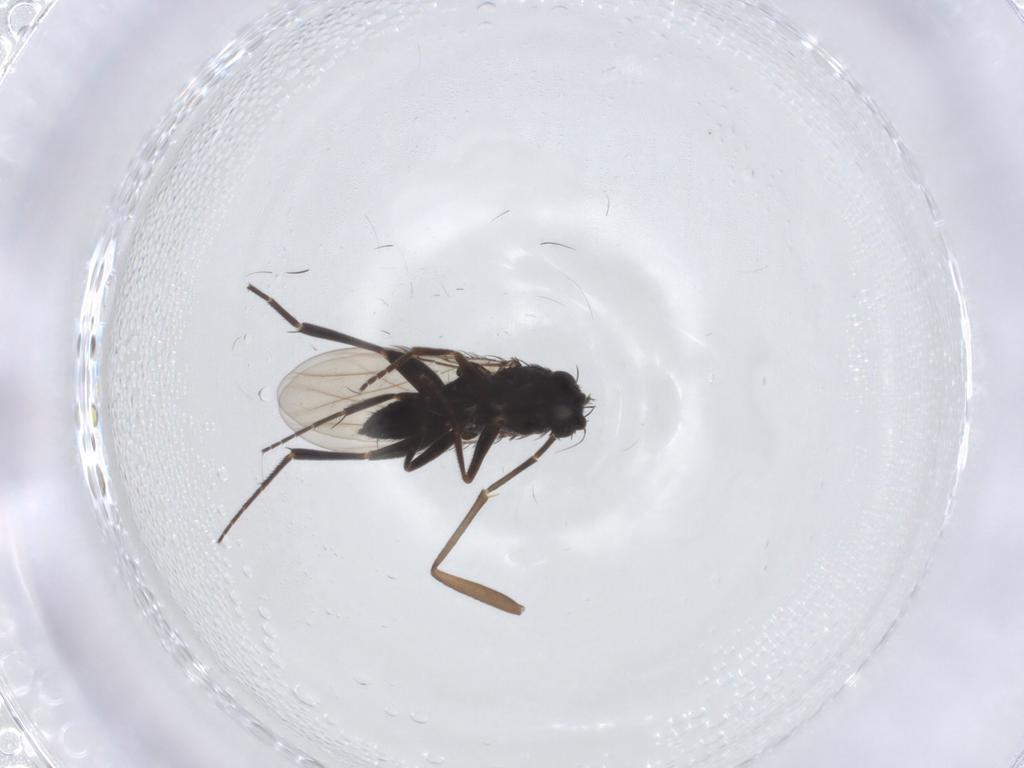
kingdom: Animalia
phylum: Arthropoda
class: Insecta
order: Diptera
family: Phoridae
